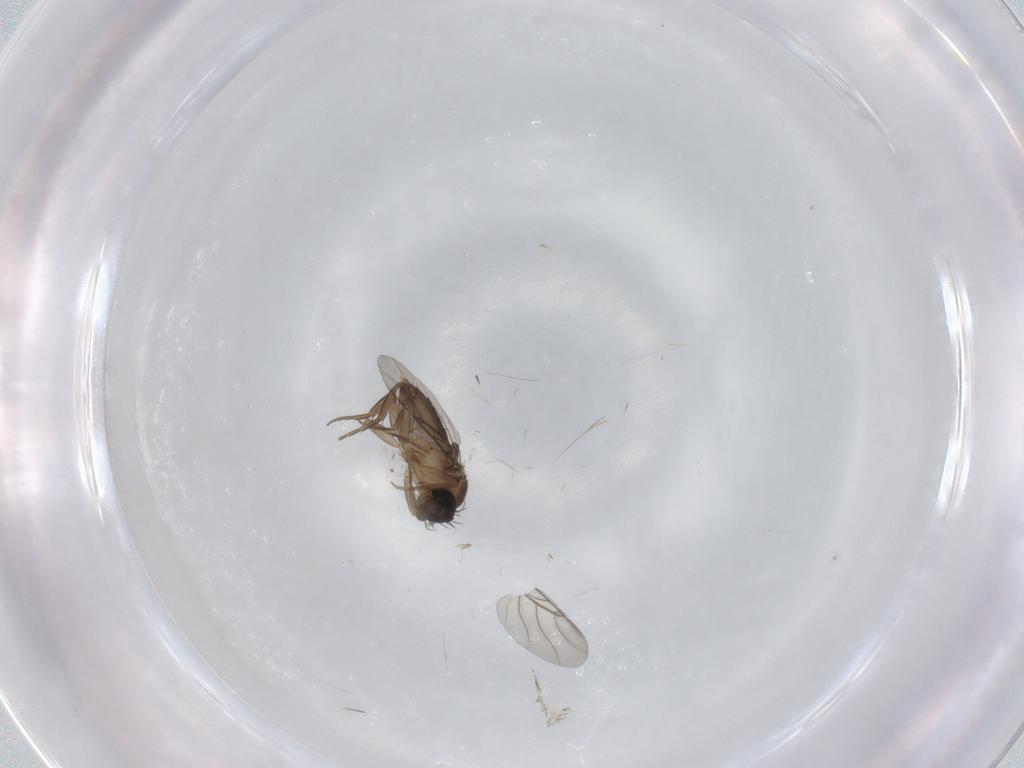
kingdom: Animalia
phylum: Arthropoda
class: Insecta
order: Diptera
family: Phoridae
